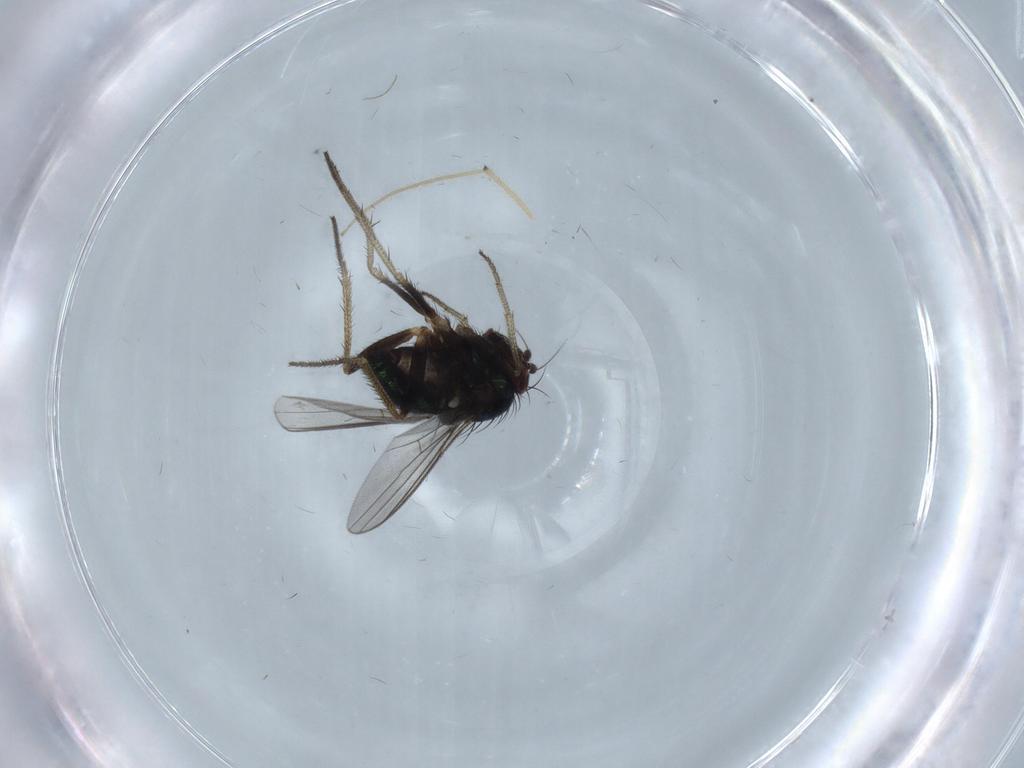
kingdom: Animalia
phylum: Arthropoda
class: Insecta
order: Diptera
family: Chironomidae
